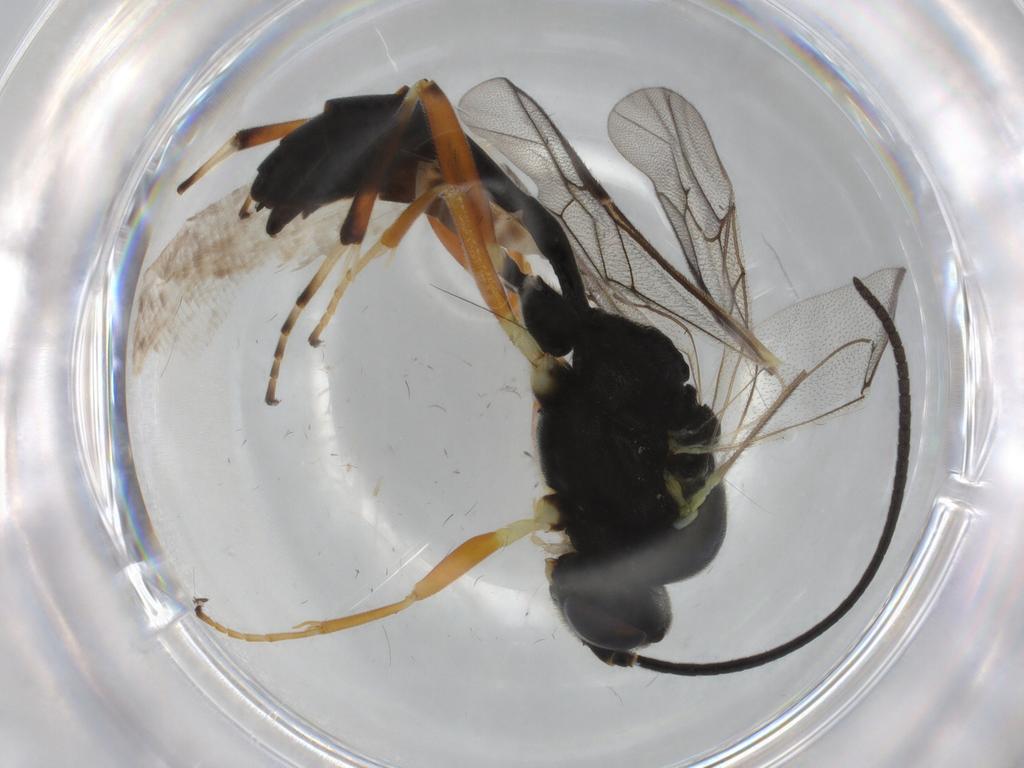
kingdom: Animalia
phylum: Arthropoda
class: Insecta
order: Hymenoptera
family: Ichneumonidae
